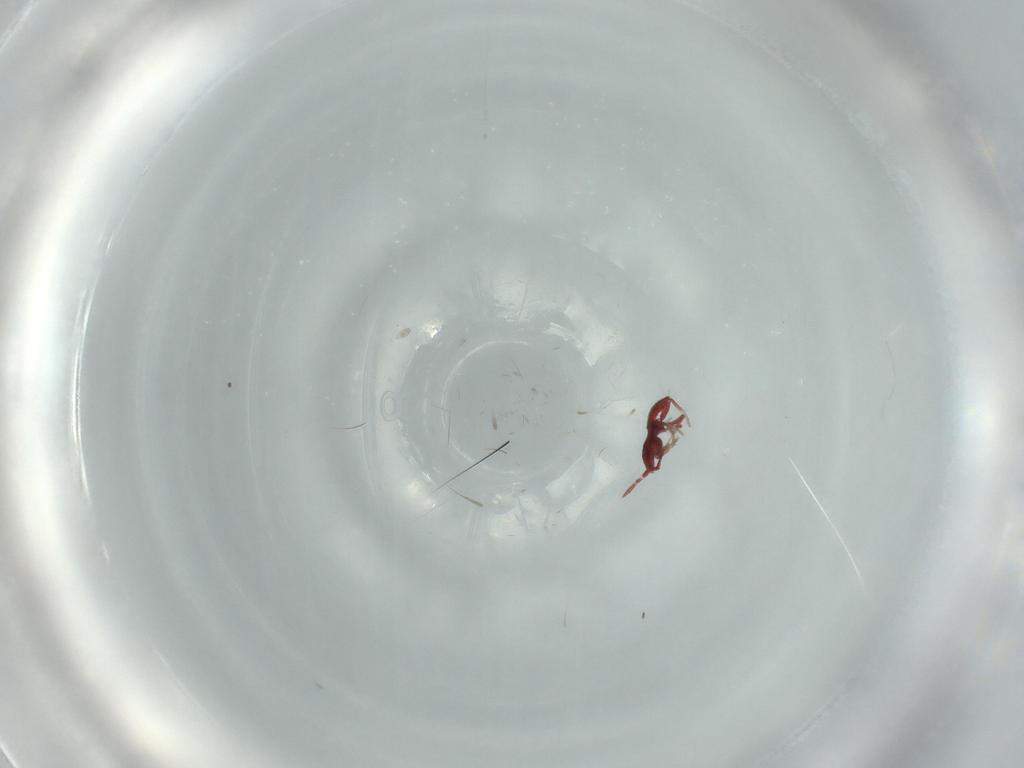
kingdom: Animalia
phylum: Arthropoda
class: Insecta
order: Diptera
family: Sciaridae
